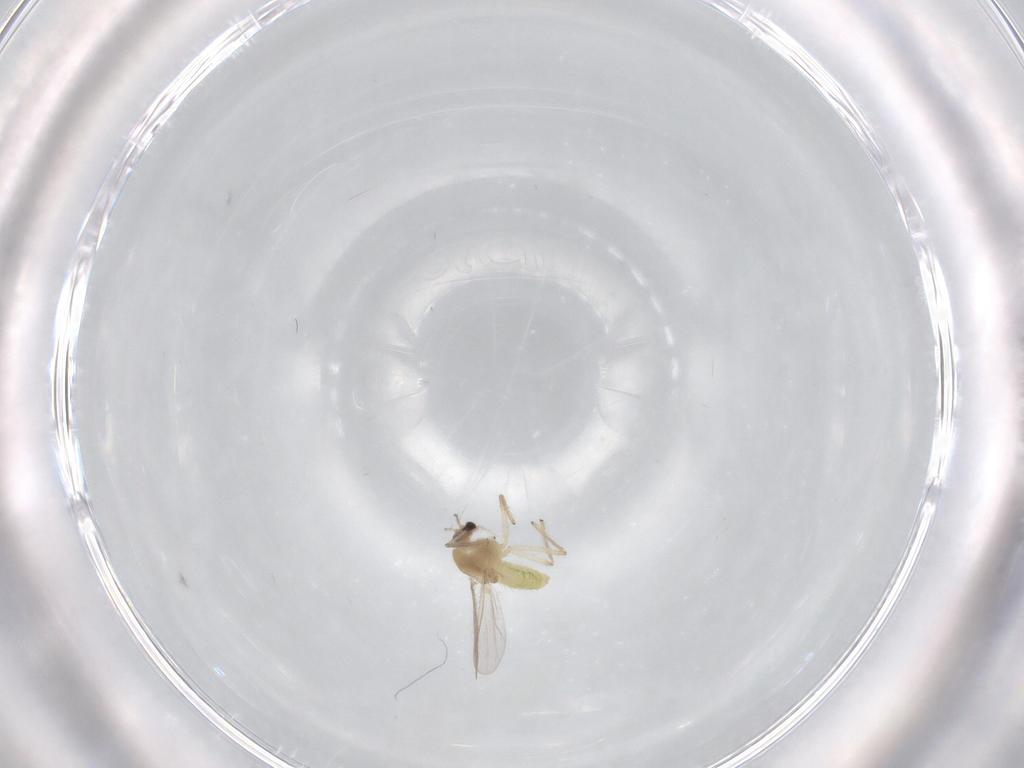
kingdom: Animalia
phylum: Arthropoda
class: Insecta
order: Diptera
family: Chironomidae
